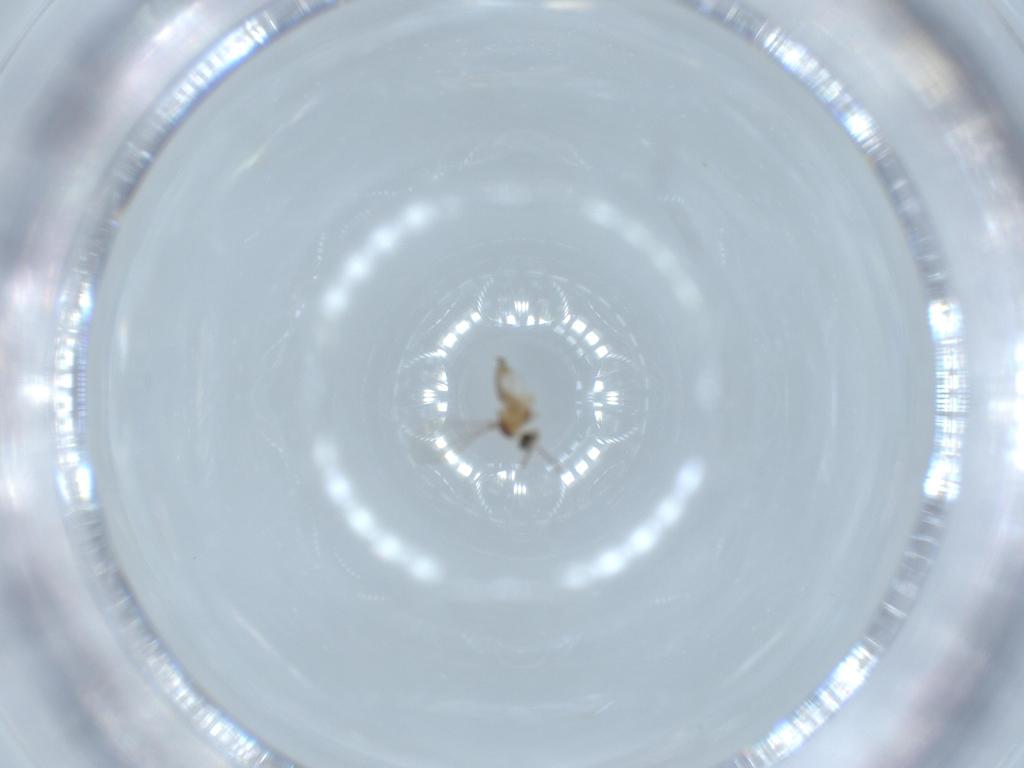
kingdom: Animalia
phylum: Arthropoda
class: Insecta
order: Diptera
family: Cecidomyiidae
